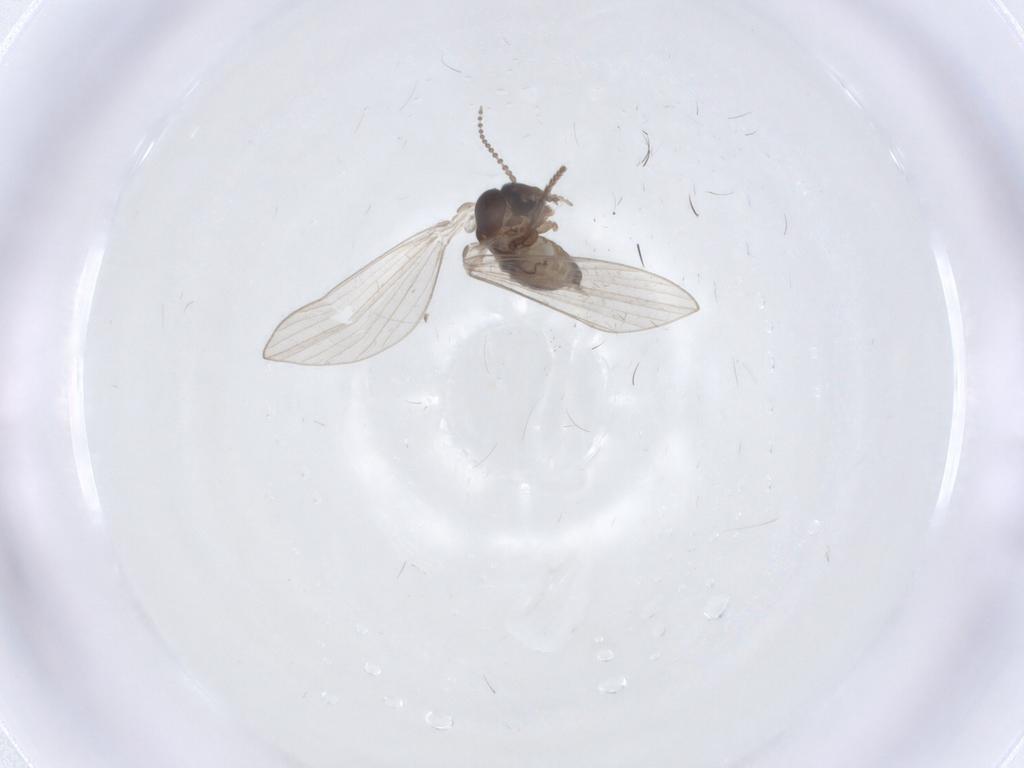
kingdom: Animalia
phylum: Arthropoda
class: Insecta
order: Diptera
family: Psychodidae
